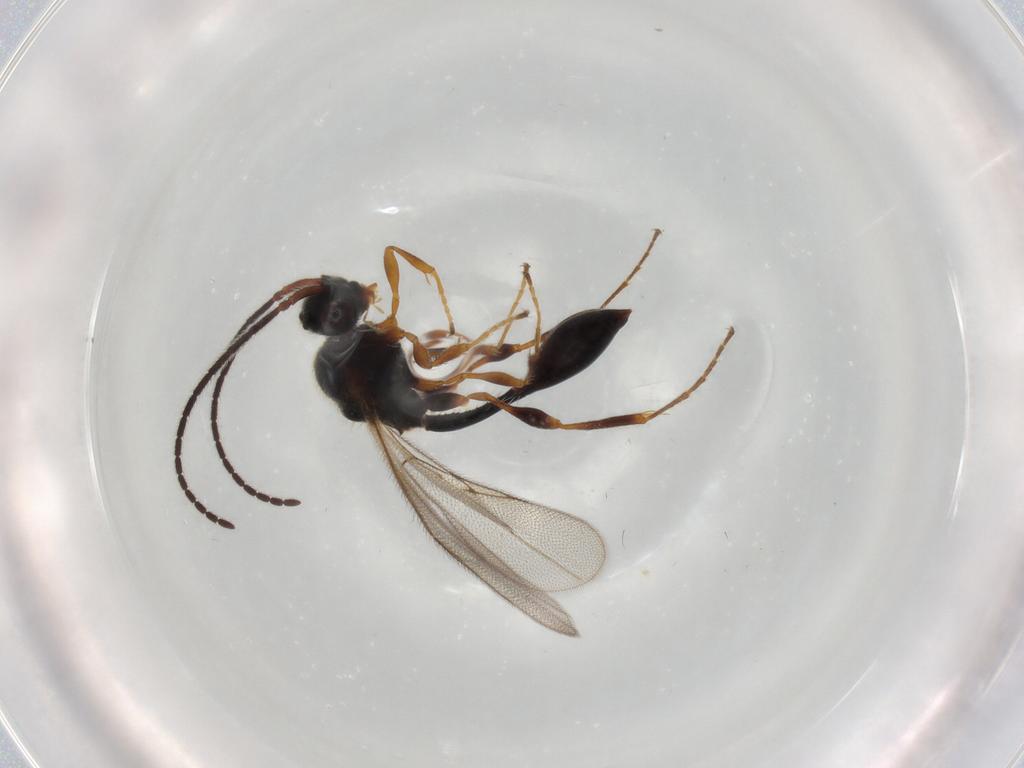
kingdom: Animalia
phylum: Arthropoda
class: Insecta
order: Hymenoptera
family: Diapriidae
